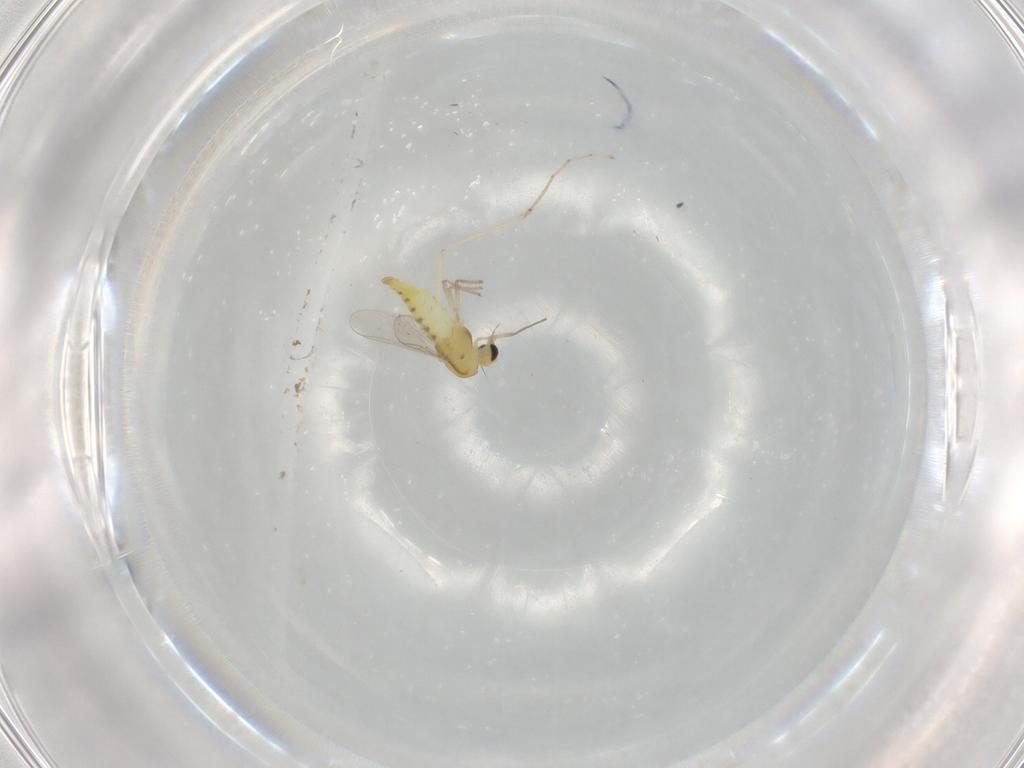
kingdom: Animalia
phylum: Arthropoda
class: Insecta
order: Diptera
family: Chironomidae
